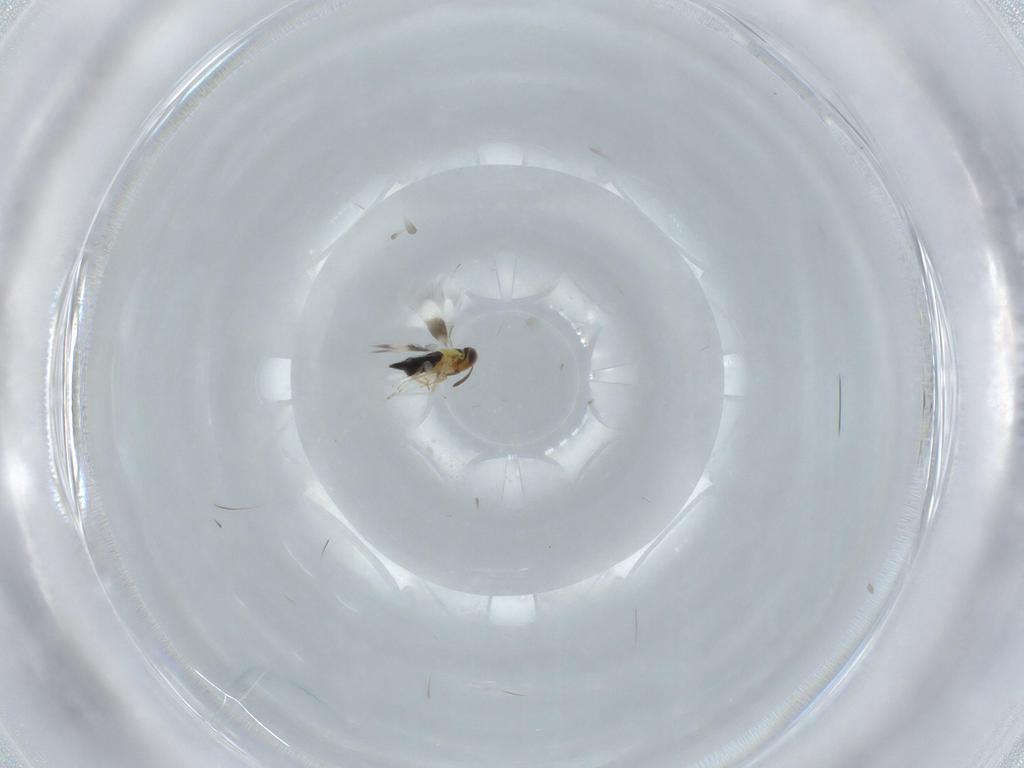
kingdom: Animalia
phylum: Arthropoda
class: Insecta
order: Hymenoptera
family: Signiphoridae
